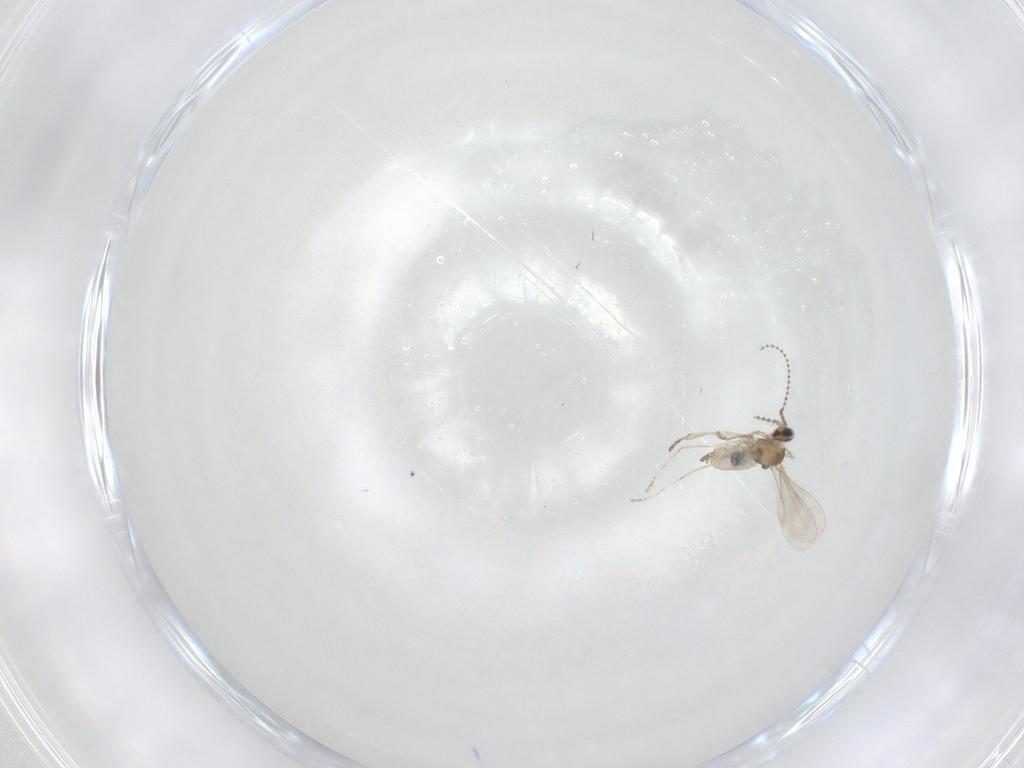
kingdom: Animalia
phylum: Arthropoda
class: Insecta
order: Diptera
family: Cecidomyiidae
